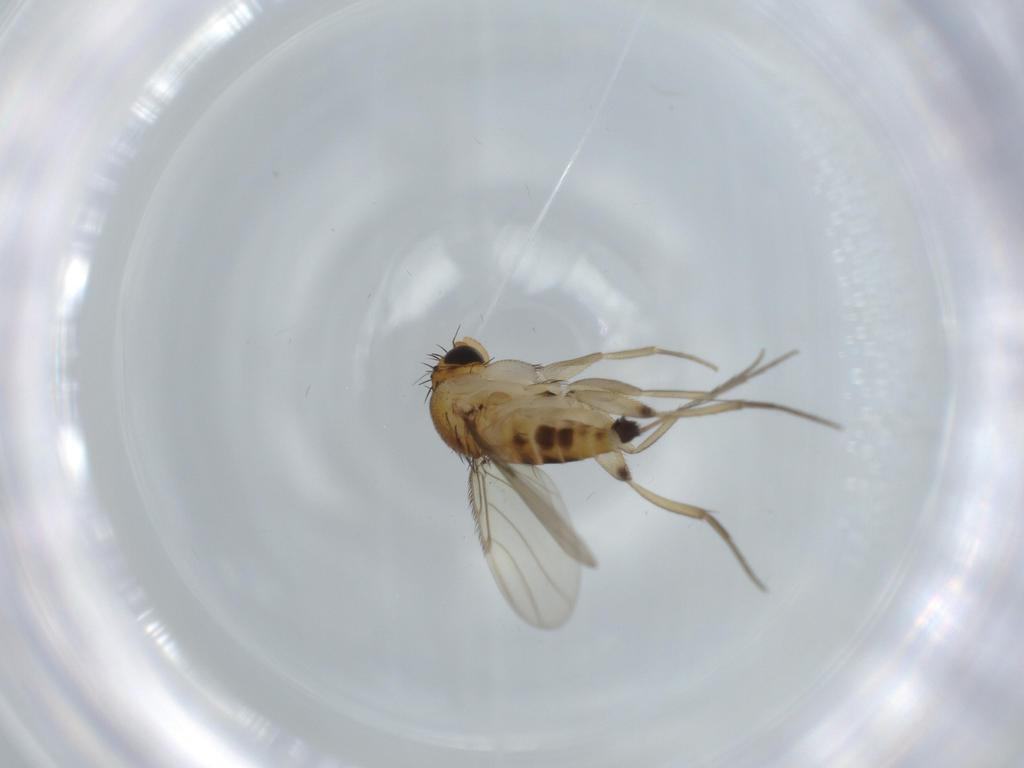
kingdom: Animalia
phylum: Arthropoda
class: Insecta
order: Diptera
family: Phoridae
